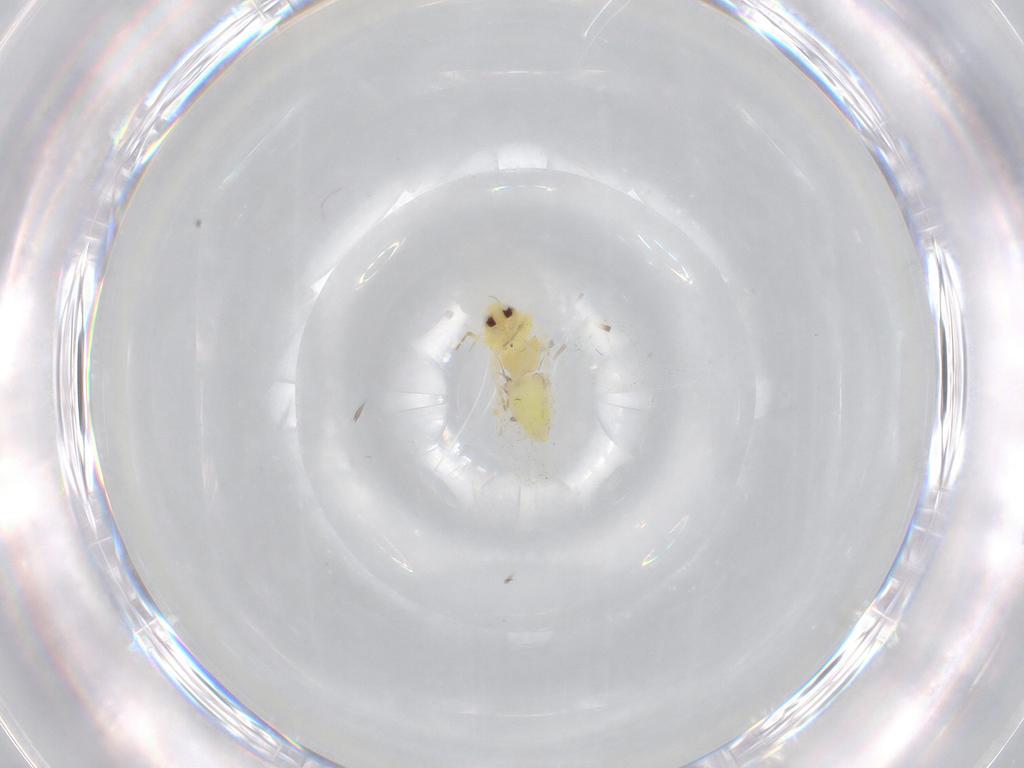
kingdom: Animalia
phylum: Arthropoda
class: Insecta
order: Hemiptera
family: Aleyrodidae
